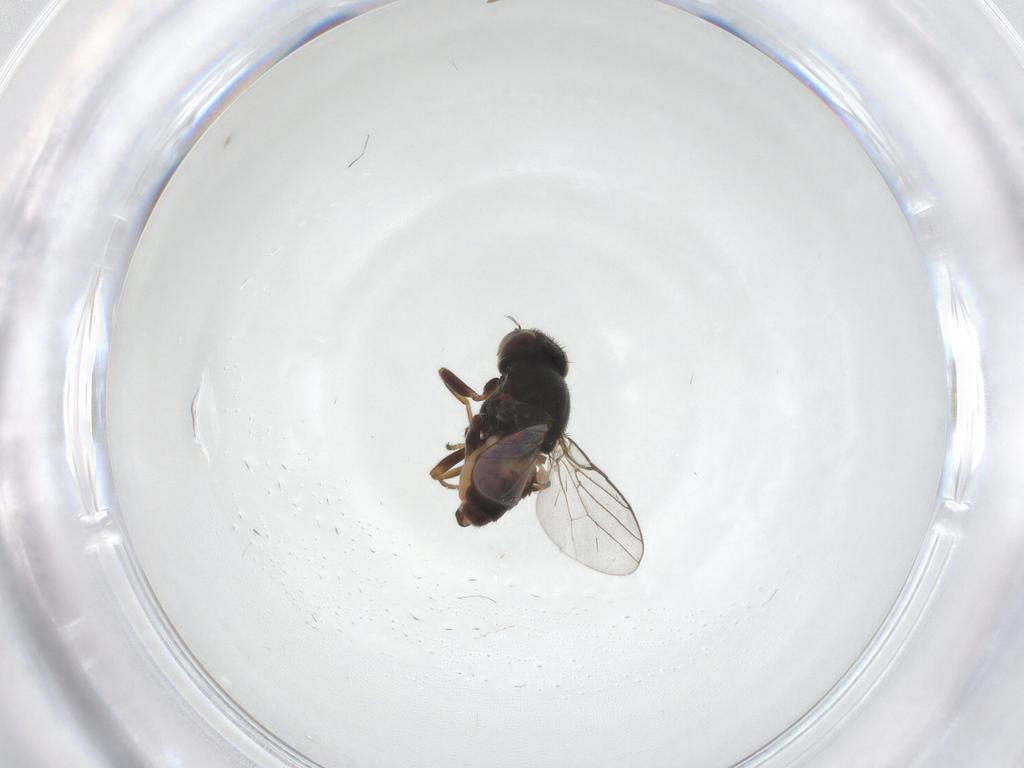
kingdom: Animalia
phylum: Arthropoda
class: Insecta
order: Diptera
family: Chloropidae
